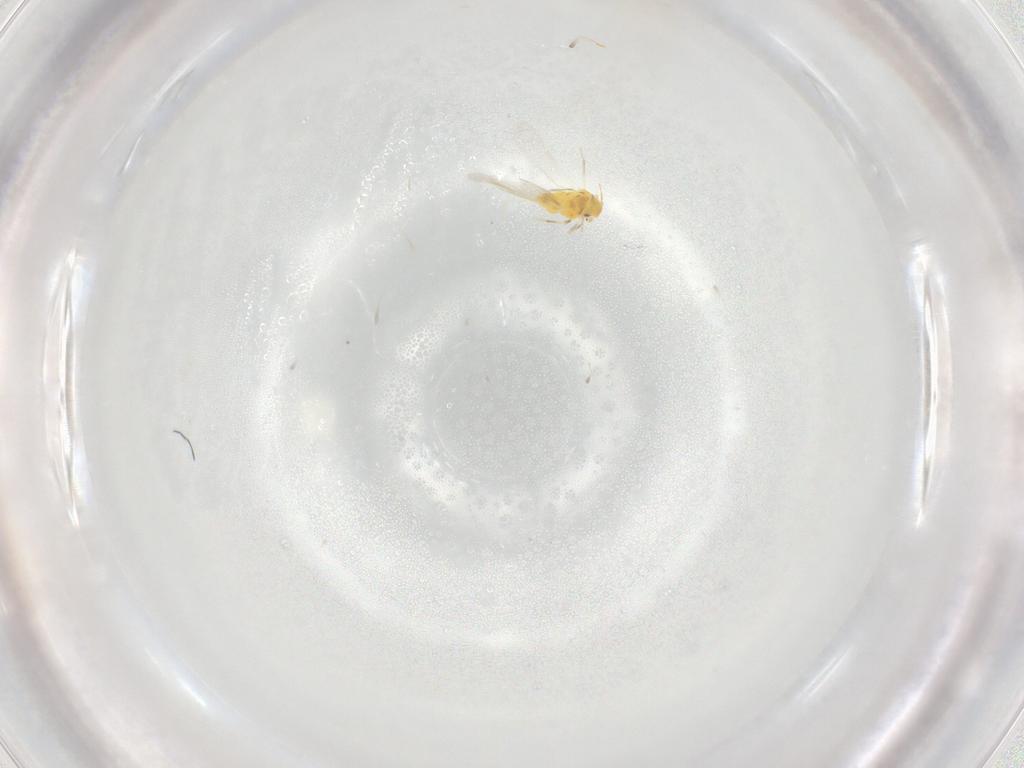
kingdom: Animalia
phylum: Arthropoda
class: Insecta
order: Hemiptera
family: Aleyrodidae
